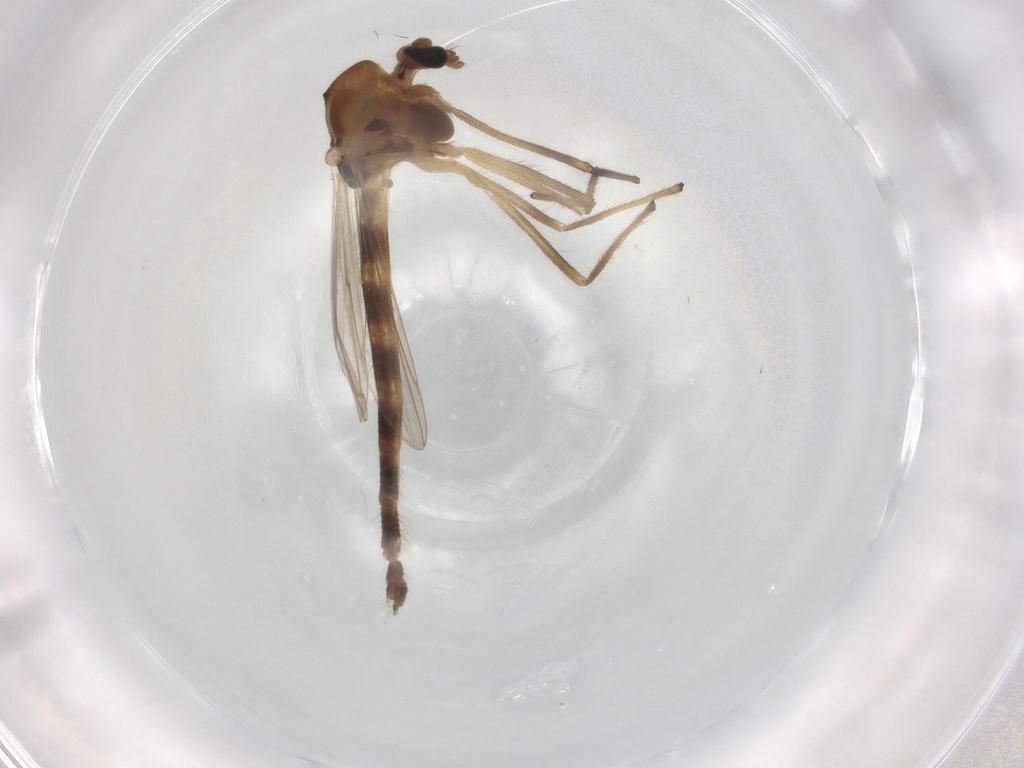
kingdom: Animalia
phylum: Arthropoda
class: Insecta
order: Diptera
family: Chironomidae
